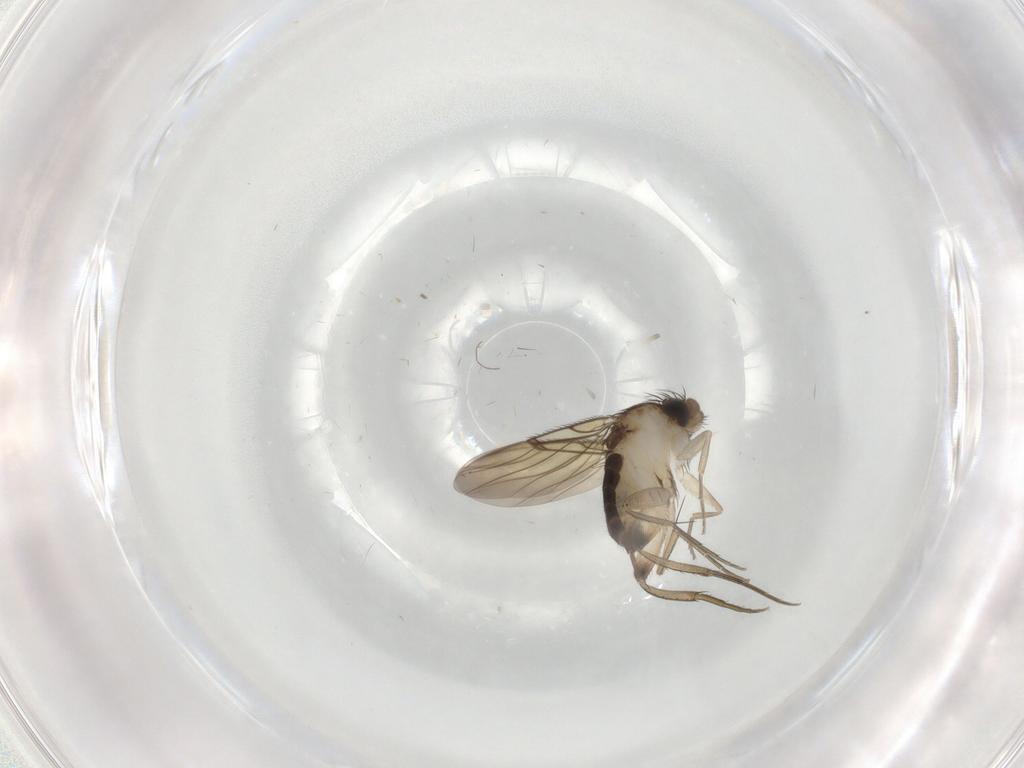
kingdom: Animalia
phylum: Arthropoda
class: Insecta
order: Diptera
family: Phoridae
